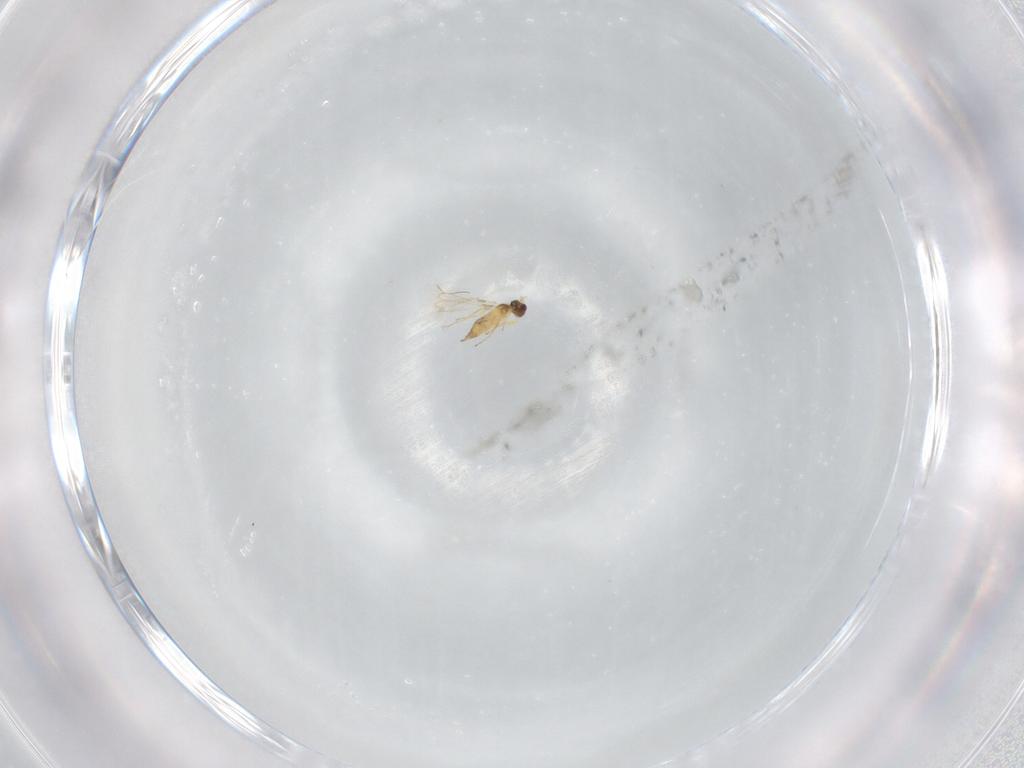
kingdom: Animalia
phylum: Arthropoda
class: Insecta
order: Hymenoptera
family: Mymaridae
